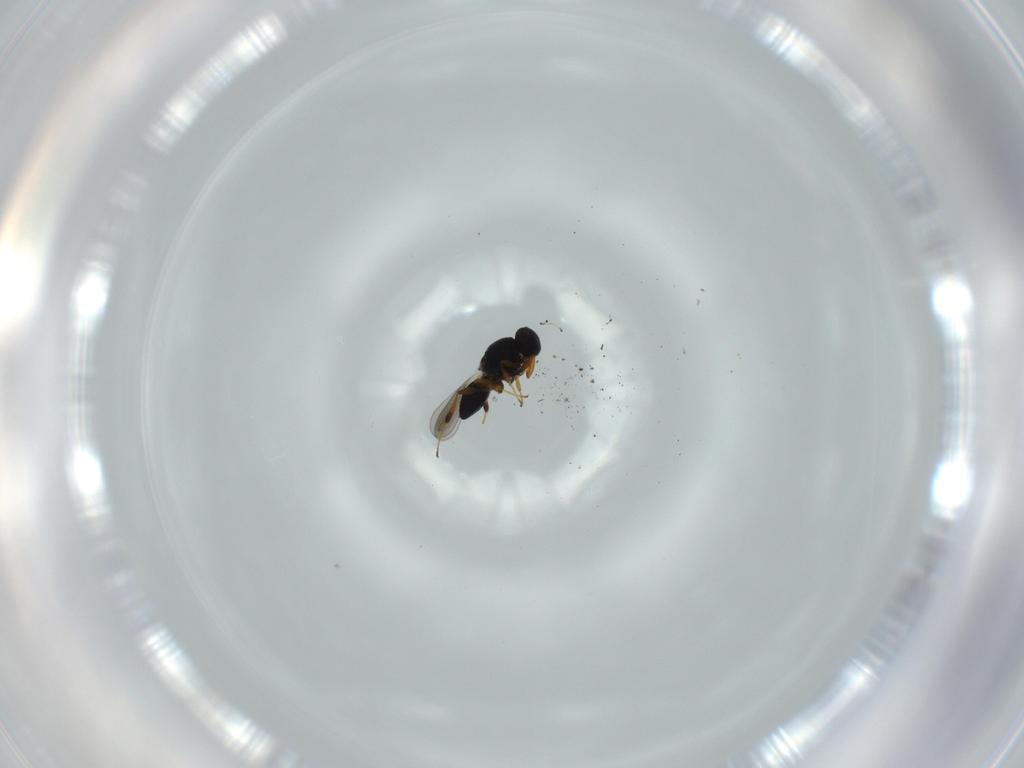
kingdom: Animalia
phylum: Arthropoda
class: Insecta
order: Hymenoptera
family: Platygastridae
